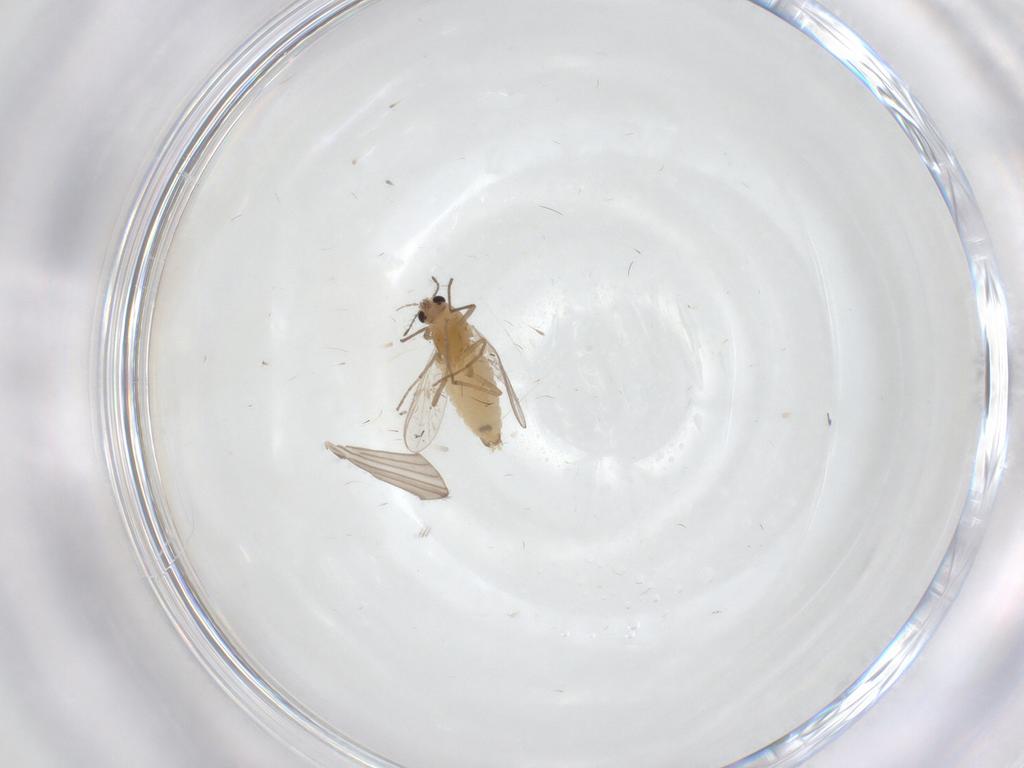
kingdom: Animalia
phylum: Arthropoda
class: Insecta
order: Diptera
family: Chironomidae
